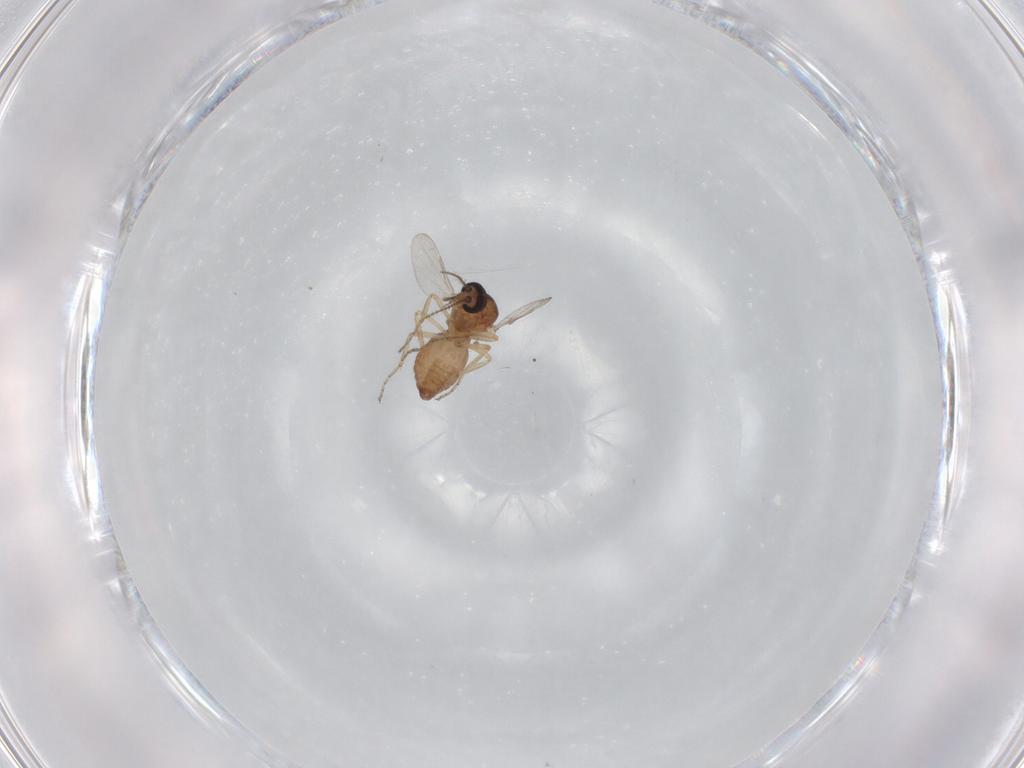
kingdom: Animalia
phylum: Arthropoda
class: Insecta
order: Diptera
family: Ceratopogonidae
